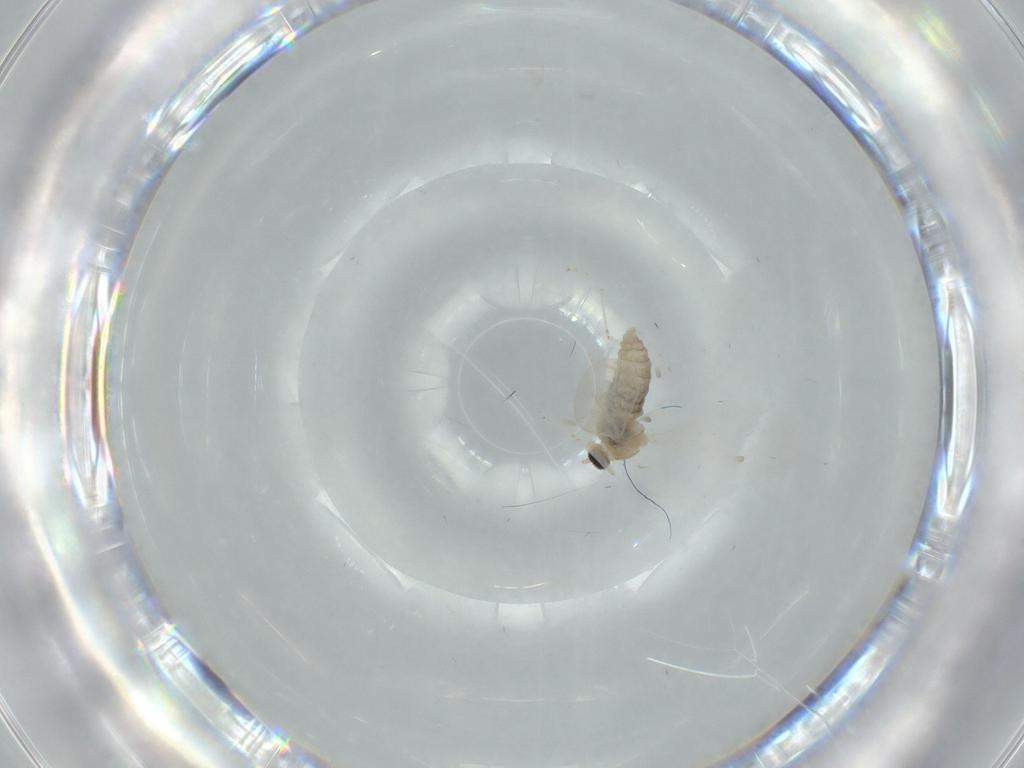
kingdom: Animalia
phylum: Arthropoda
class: Insecta
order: Diptera
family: Cecidomyiidae
